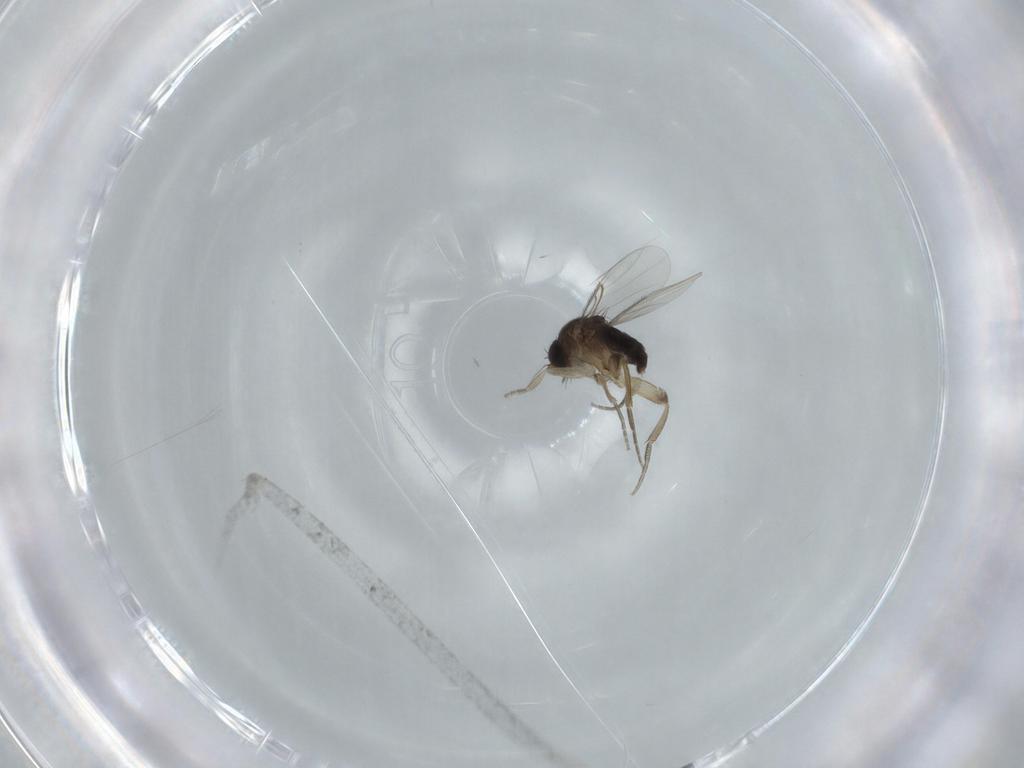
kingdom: Animalia
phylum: Arthropoda
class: Insecta
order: Diptera
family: Phoridae
